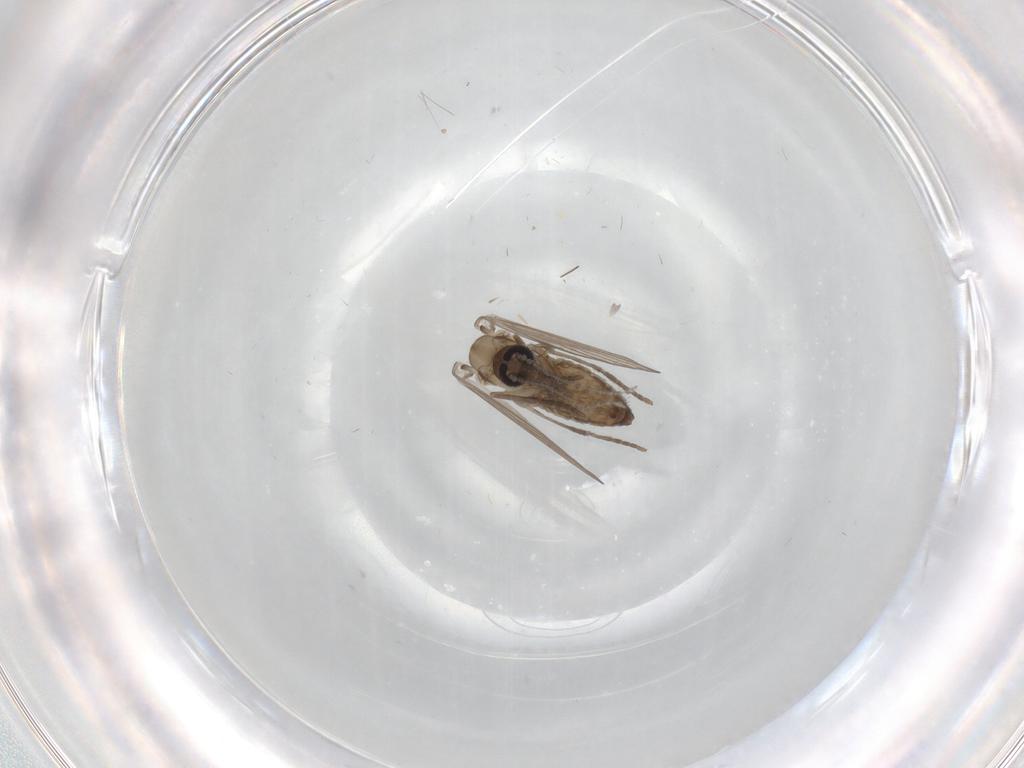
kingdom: Animalia
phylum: Arthropoda
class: Insecta
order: Diptera
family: Psychodidae
